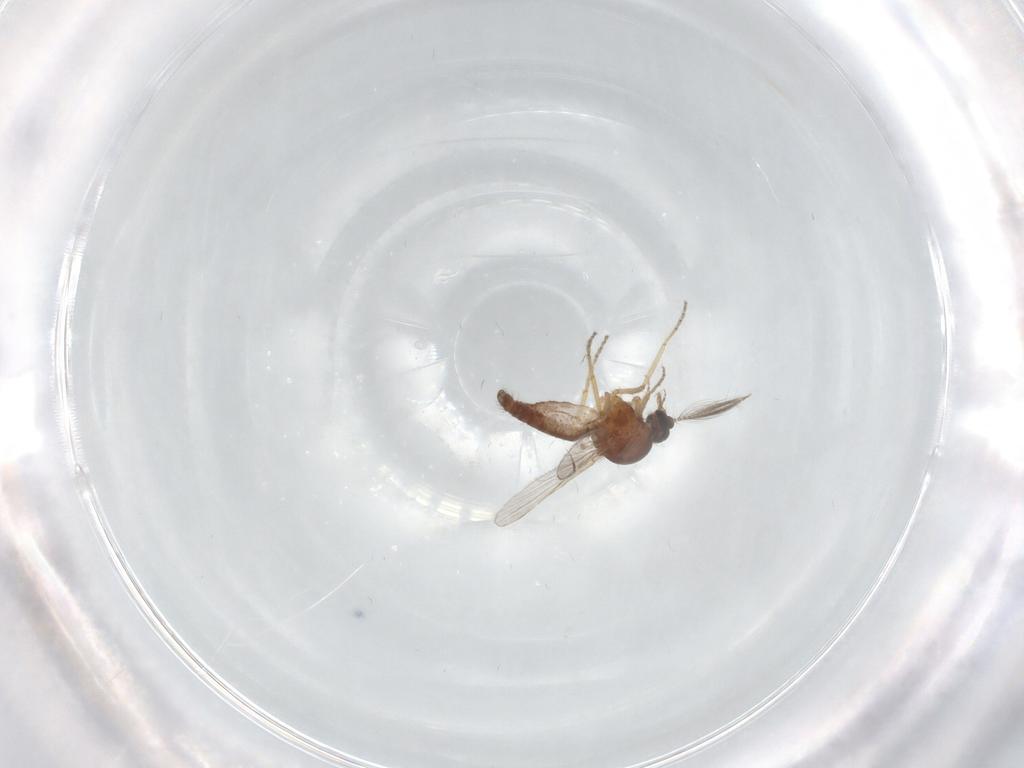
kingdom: Animalia
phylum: Arthropoda
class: Insecta
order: Diptera
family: Ceratopogonidae
